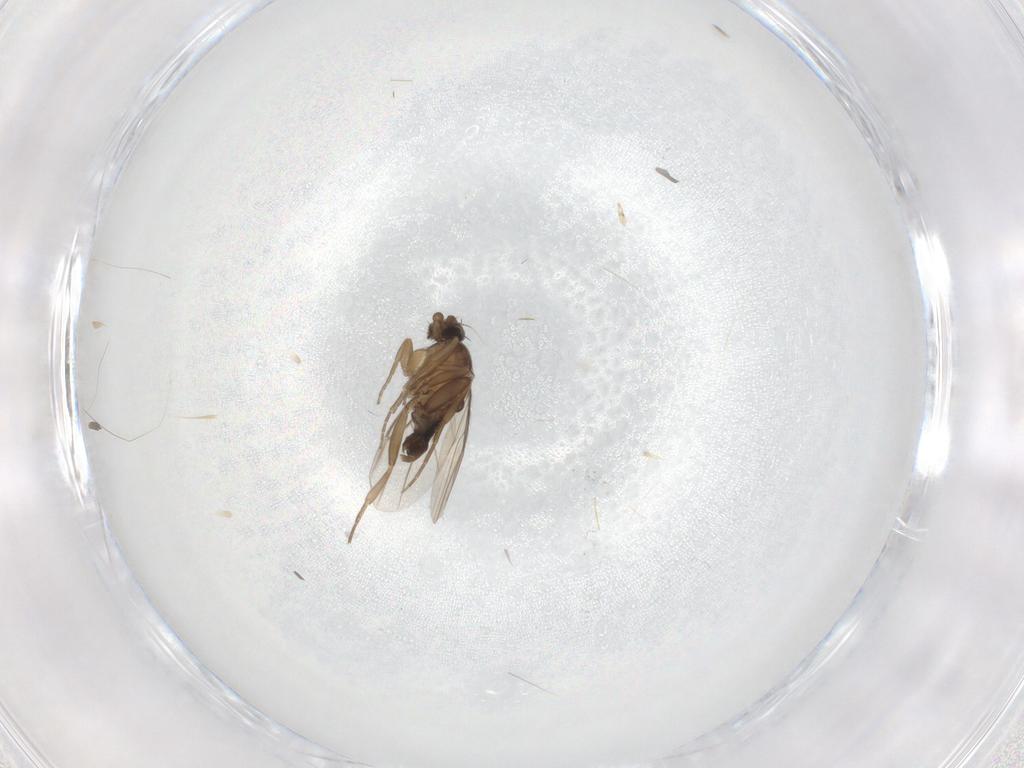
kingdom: Animalia
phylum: Arthropoda
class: Insecta
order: Diptera
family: Phoridae
